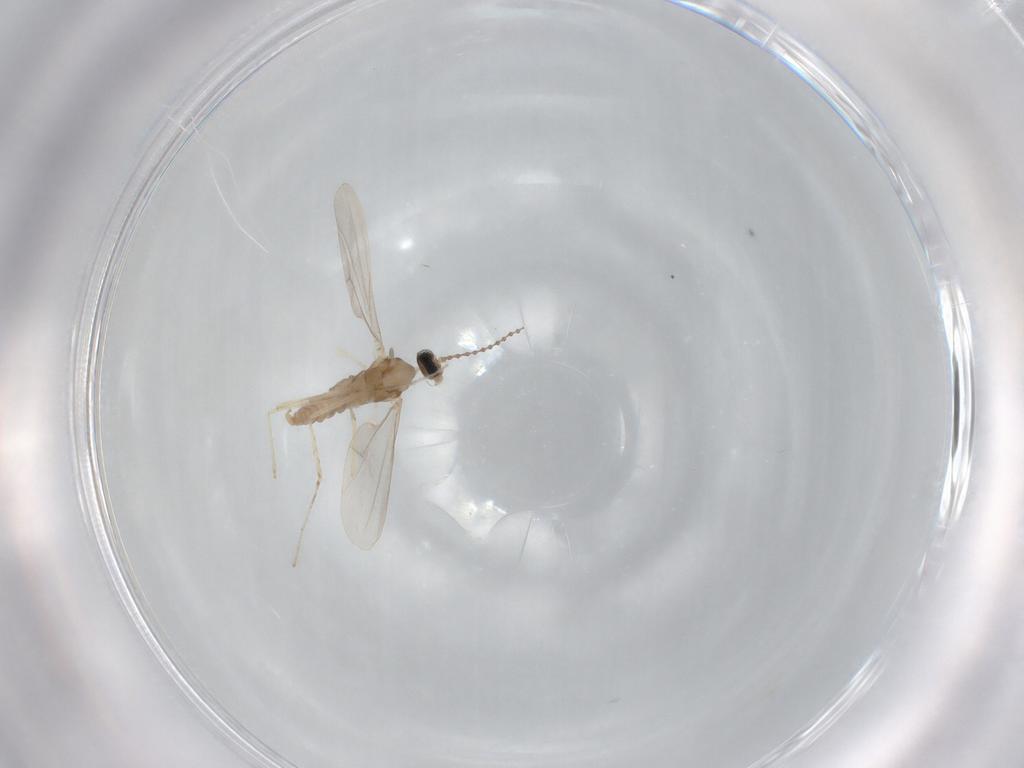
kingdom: Animalia
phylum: Arthropoda
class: Insecta
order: Diptera
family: Cecidomyiidae
